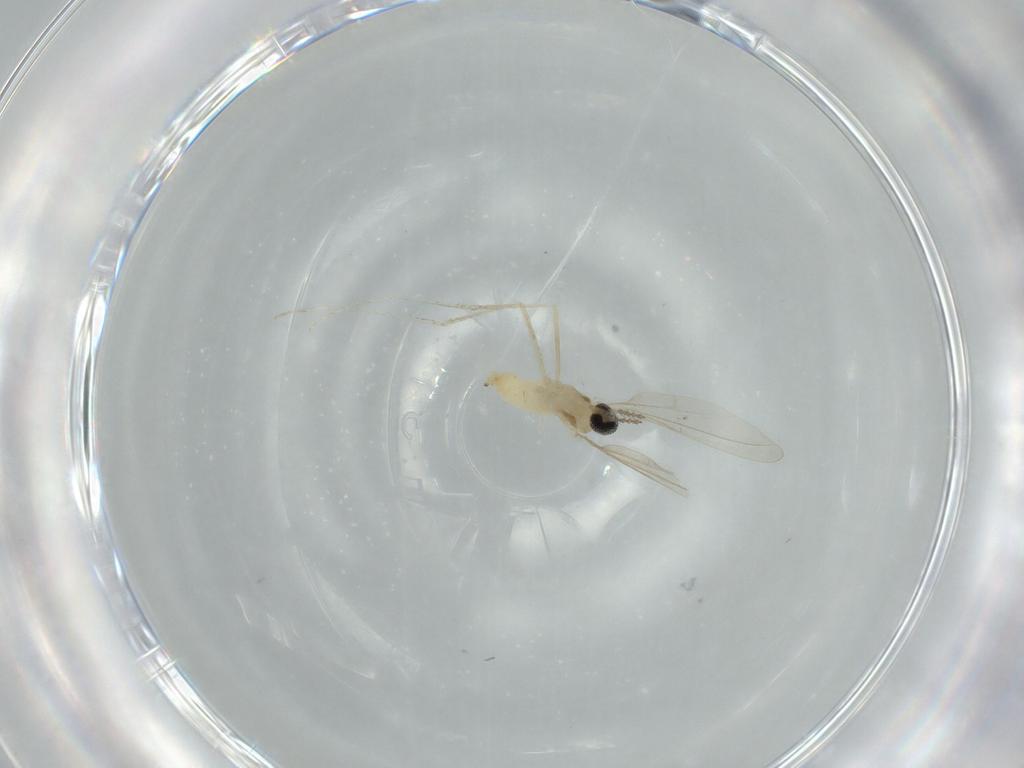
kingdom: Animalia
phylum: Arthropoda
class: Insecta
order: Diptera
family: Cecidomyiidae
